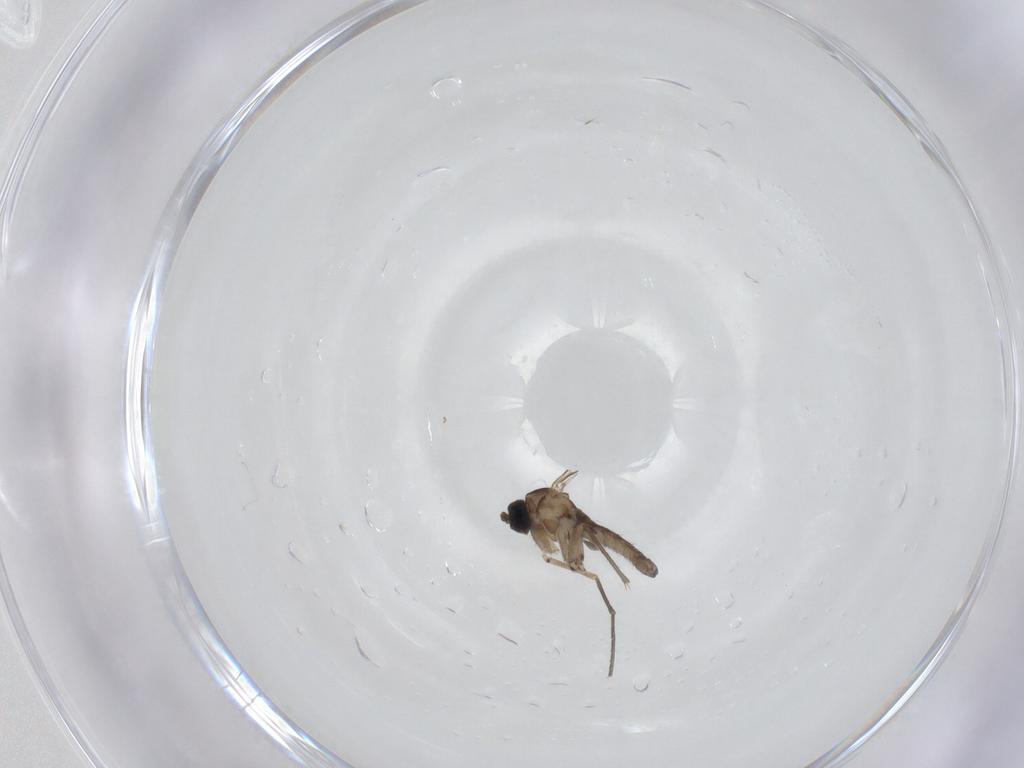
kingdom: Animalia
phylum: Arthropoda
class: Insecta
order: Diptera
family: Sciaridae
